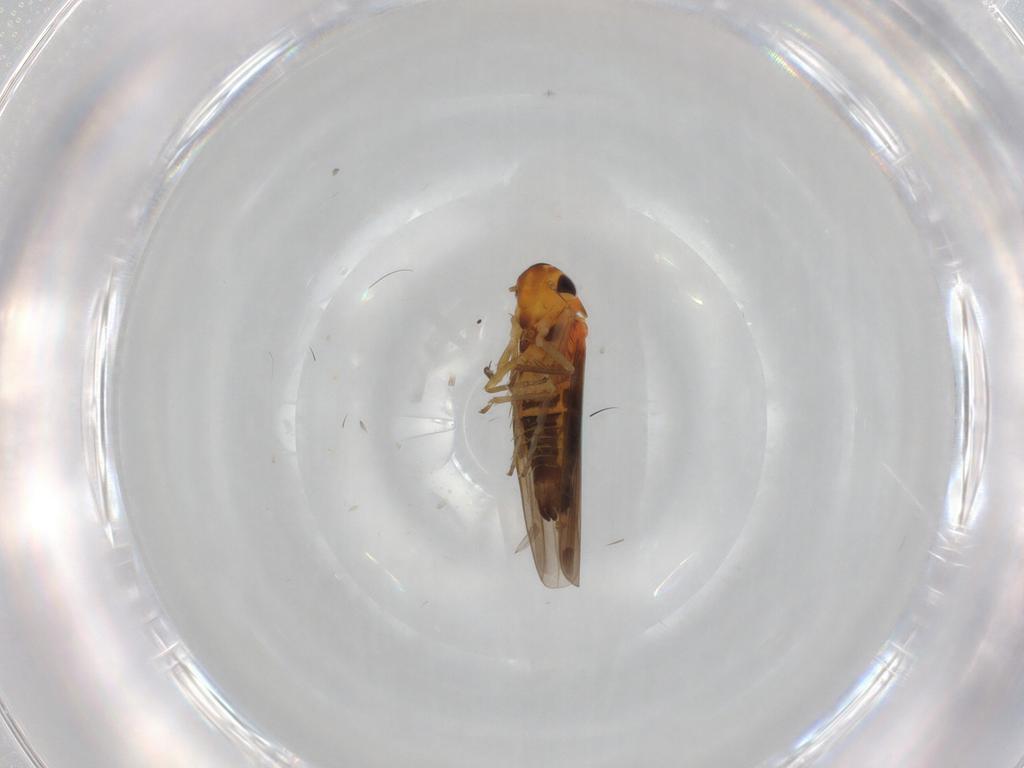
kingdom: Animalia
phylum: Arthropoda
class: Insecta
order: Hemiptera
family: Cicadellidae
